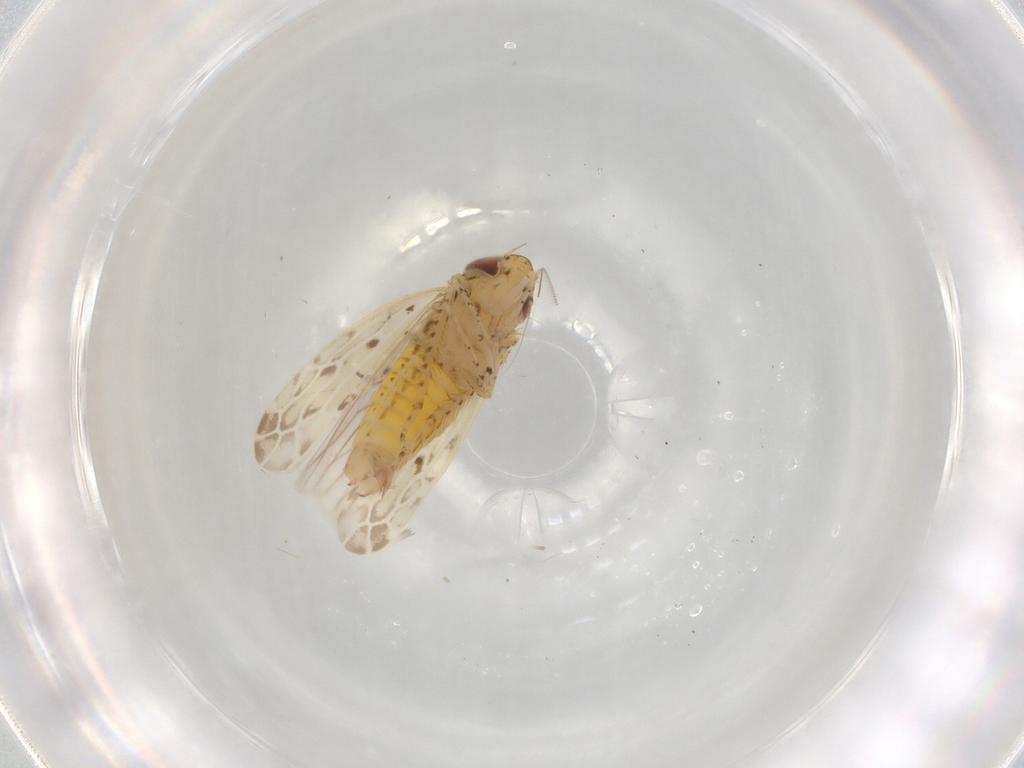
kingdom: Animalia
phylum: Arthropoda
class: Insecta
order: Hemiptera
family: Cicadellidae
